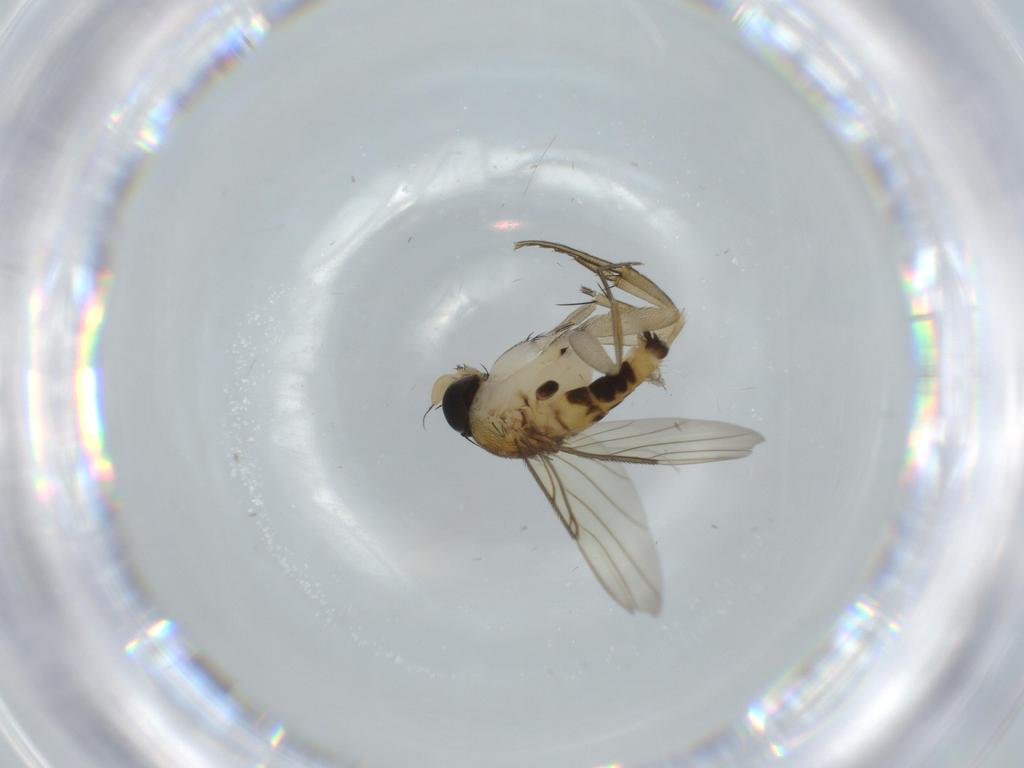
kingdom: Animalia
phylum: Arthropoda
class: Insecta
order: Diptera
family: Phoridae
